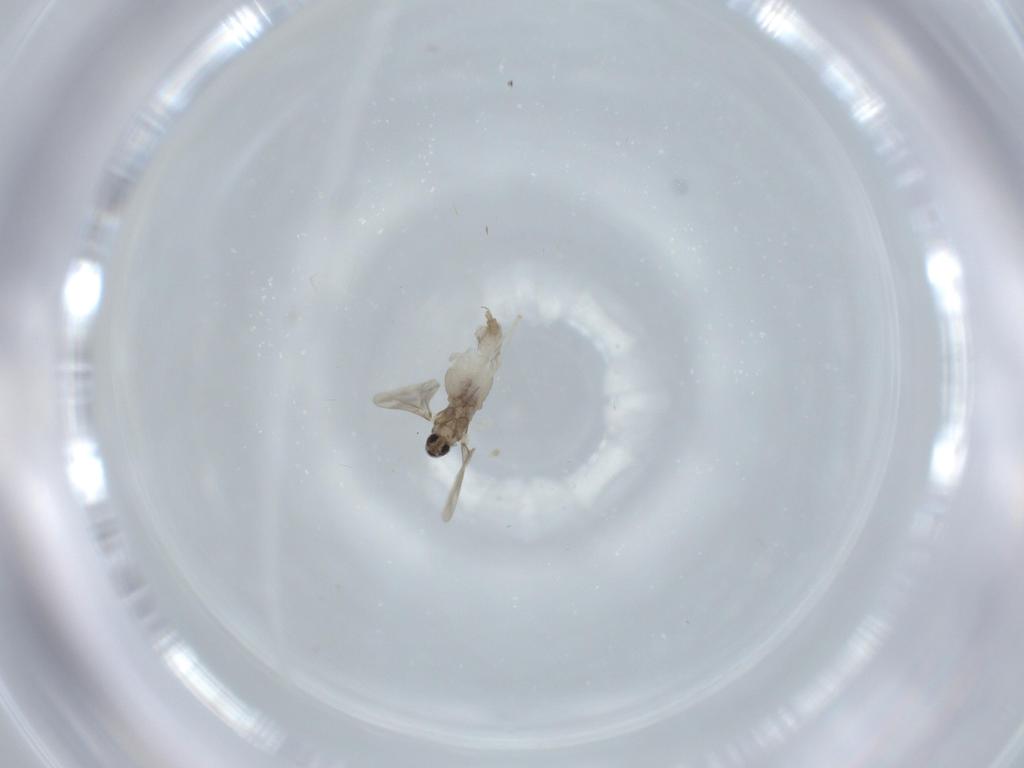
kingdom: Animalia
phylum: Arthropoda
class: Insecta
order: Diptera
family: Cecidomyiidae
